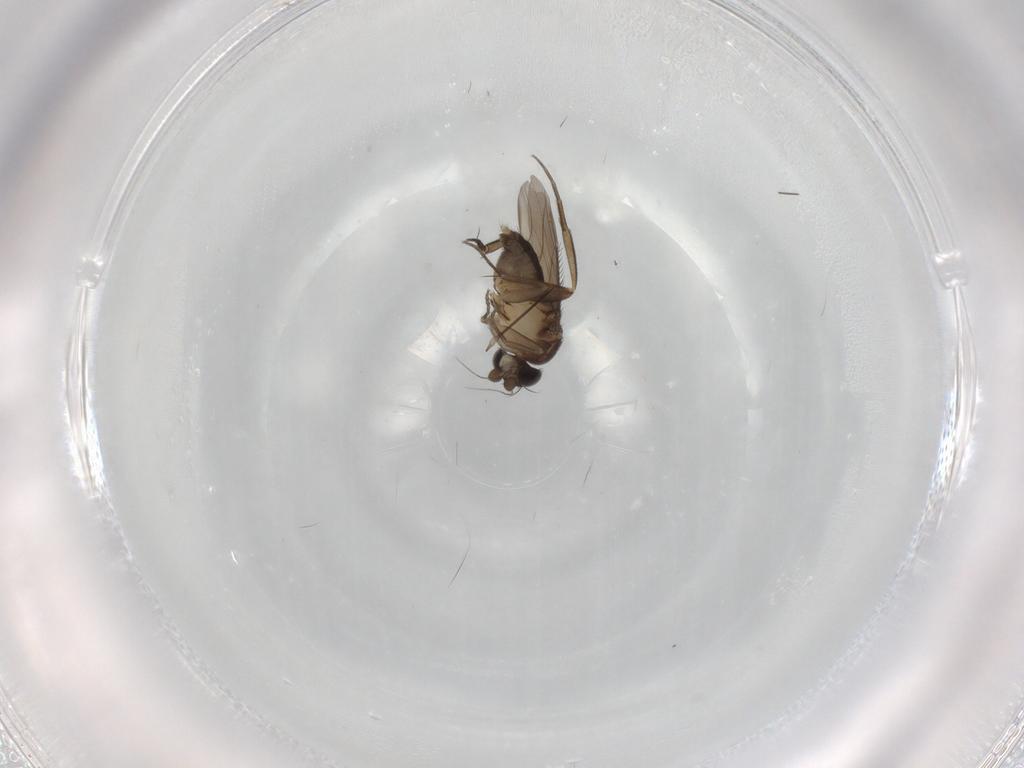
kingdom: Animalia
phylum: Arthropoda
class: Insecta
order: Diptera
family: Phoridae
